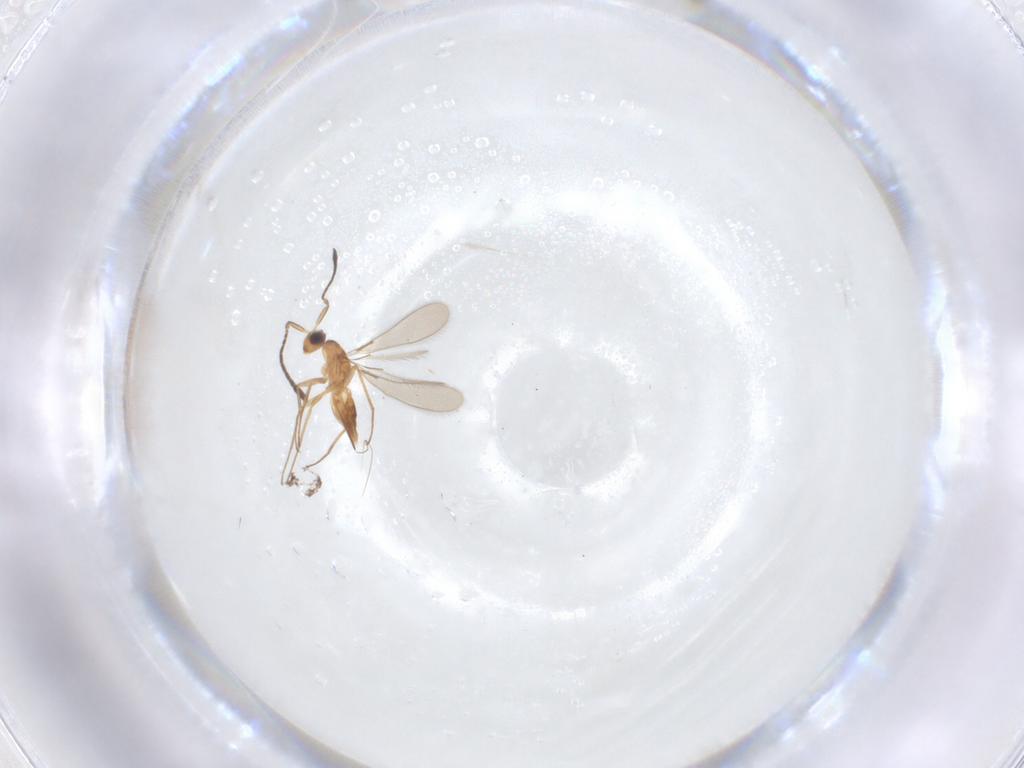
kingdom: Animalia
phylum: Arthropoda
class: Insecta
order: Hymenoptera
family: Mymaridae
